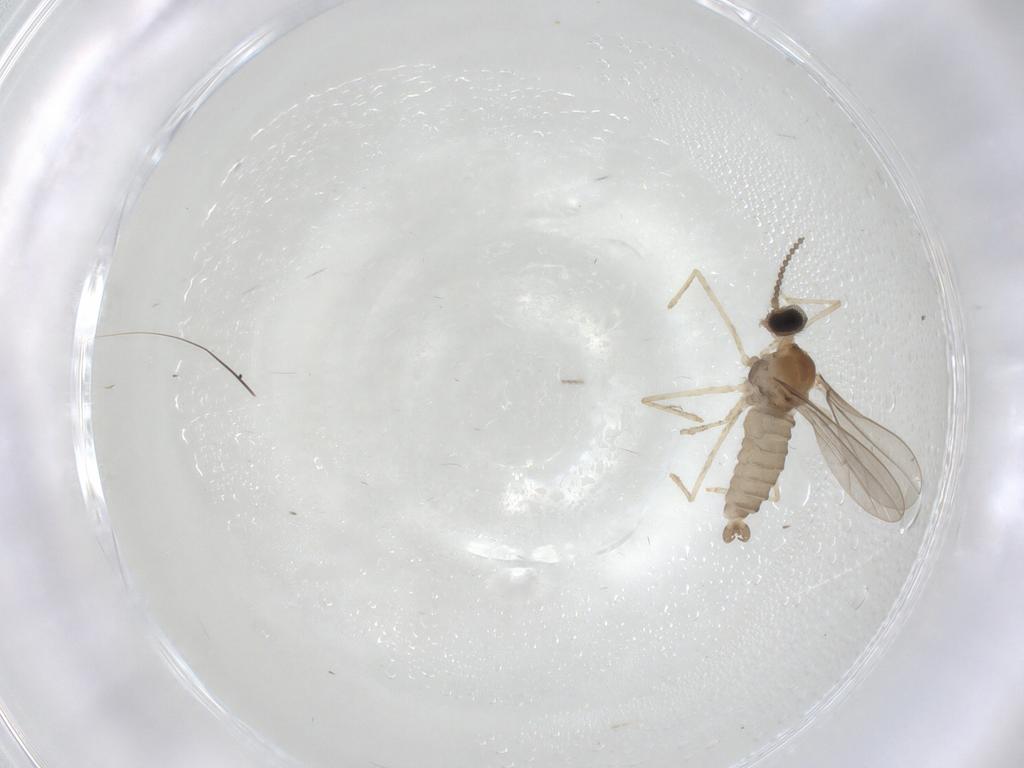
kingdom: Animalia
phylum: Arthropoda
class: Insecta
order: Diptera
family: Cecidomyiidae
